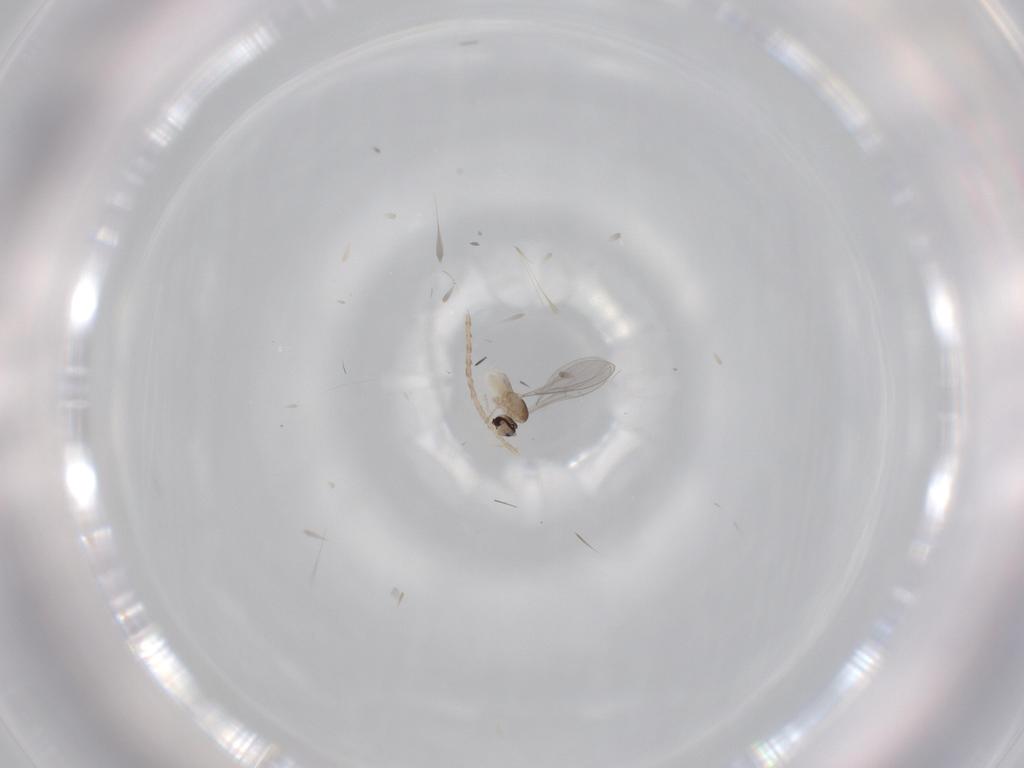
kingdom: Animalia
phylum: Arthropoda
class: Insecta
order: Diptera
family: Cecidomyiidae
